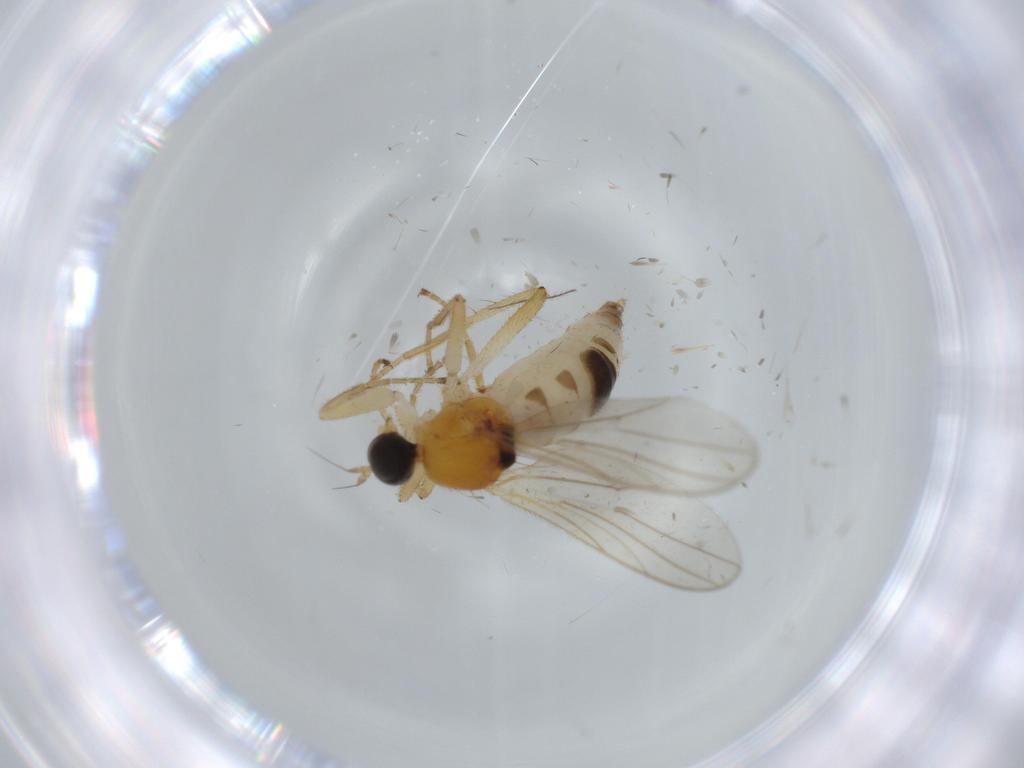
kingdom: Animalia
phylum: Arthropoda
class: Insecta
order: Diptera
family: Hybotidae
